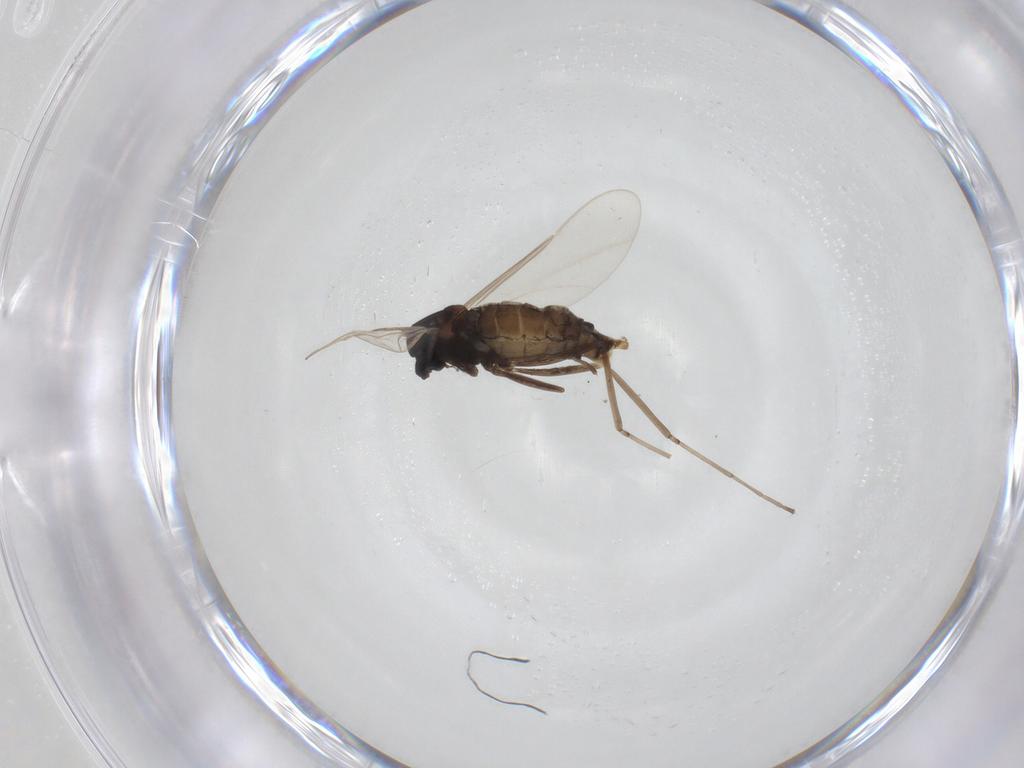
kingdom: Animalia
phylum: Arthropoda
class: Insecta
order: Diptera
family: Cecidomyiidae
